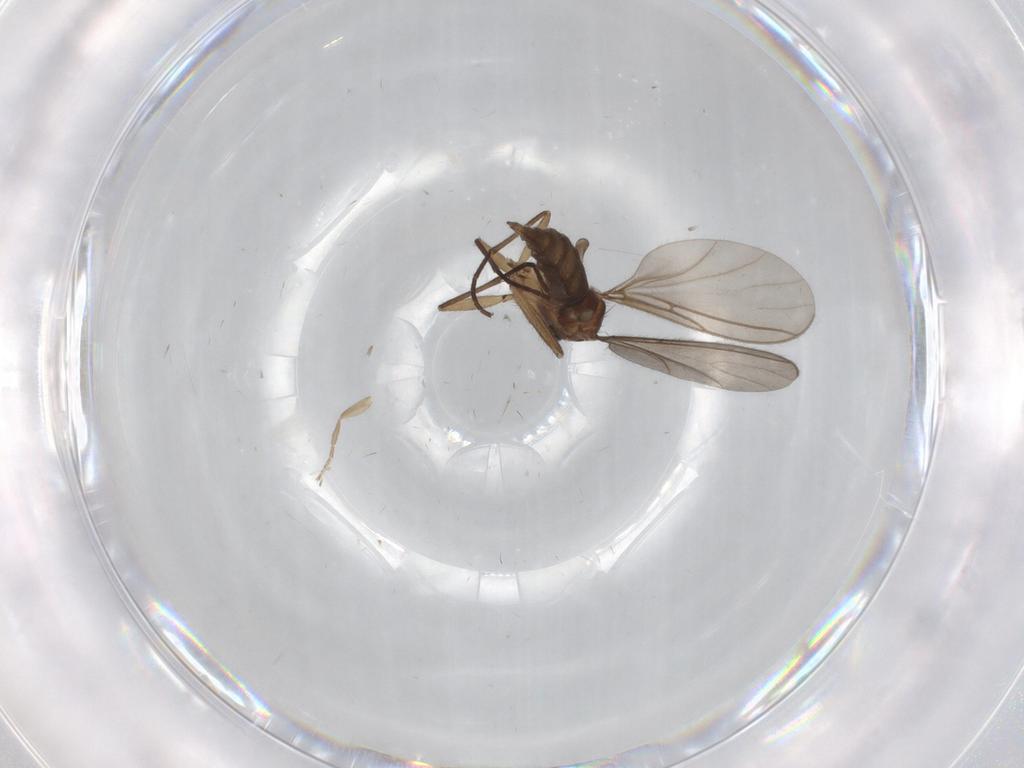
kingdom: Animalia
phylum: Arthropoda
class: Insecta
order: Diptera
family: Sciaridae
